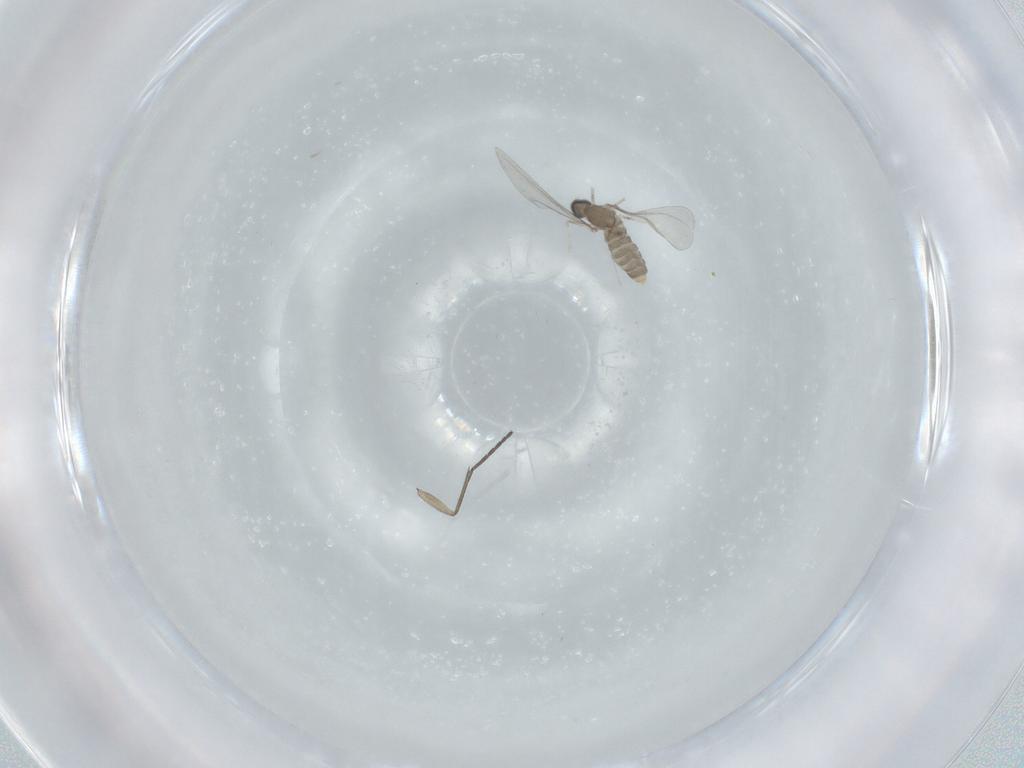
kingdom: Animalia
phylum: Arthropoda
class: Insecta
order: Diptera
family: Cecidomyiidae
